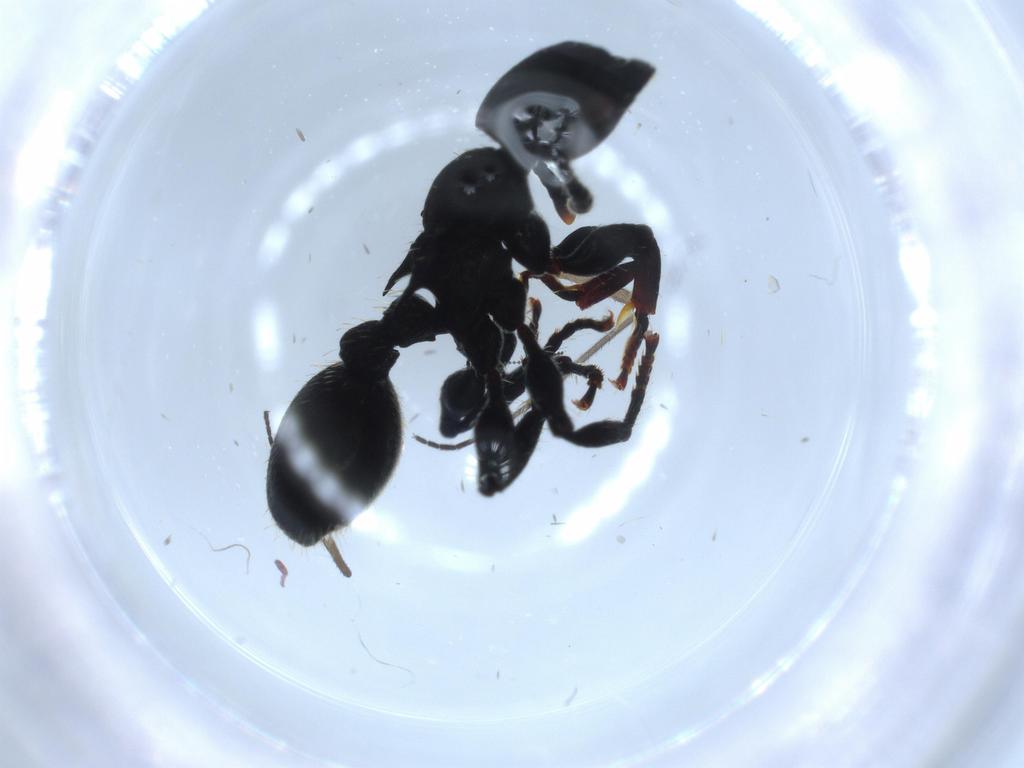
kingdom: Animalia
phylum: Arthropoda
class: Insecta
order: Hymenoptera
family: Formicidae
